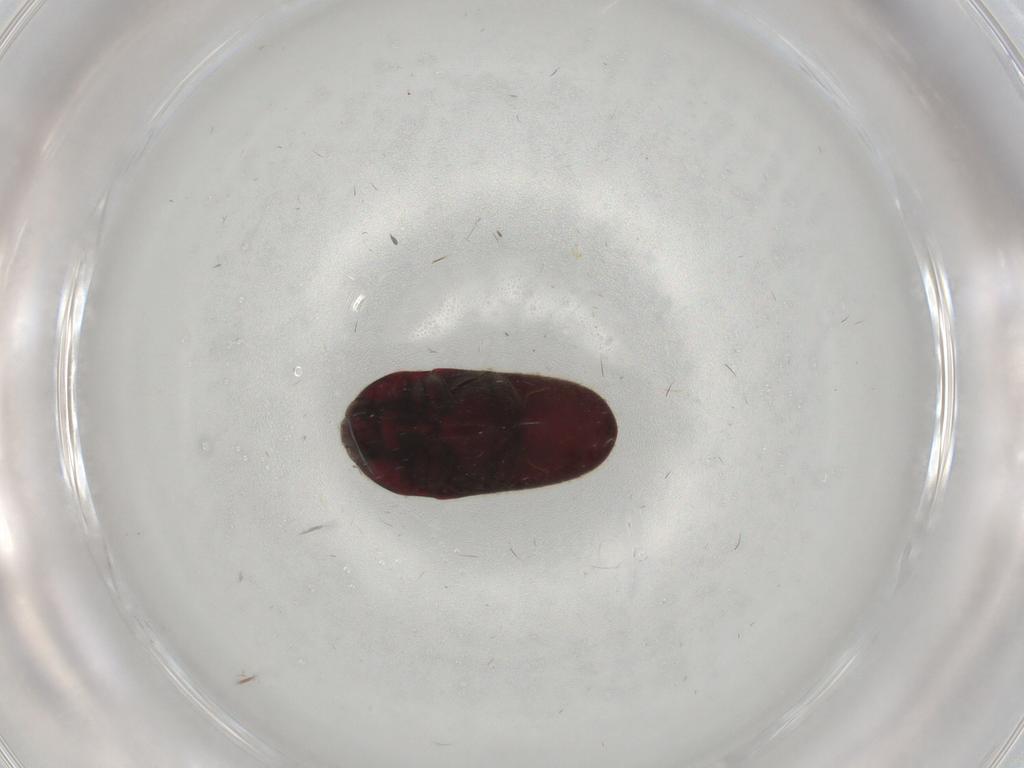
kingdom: Animalia
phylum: Arthropoda
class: Insecta
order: Coleoptera
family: Throscidae
